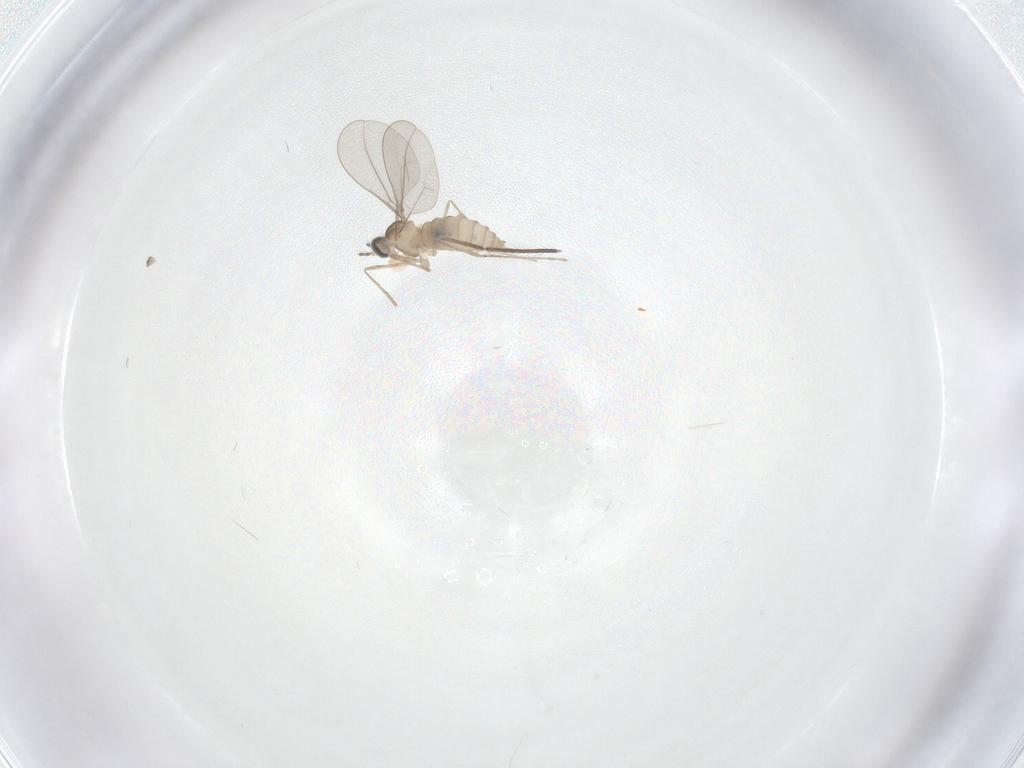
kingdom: Animalia
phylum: Arthropoda
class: Insecta
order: Diptera
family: Cecidomyiidae
